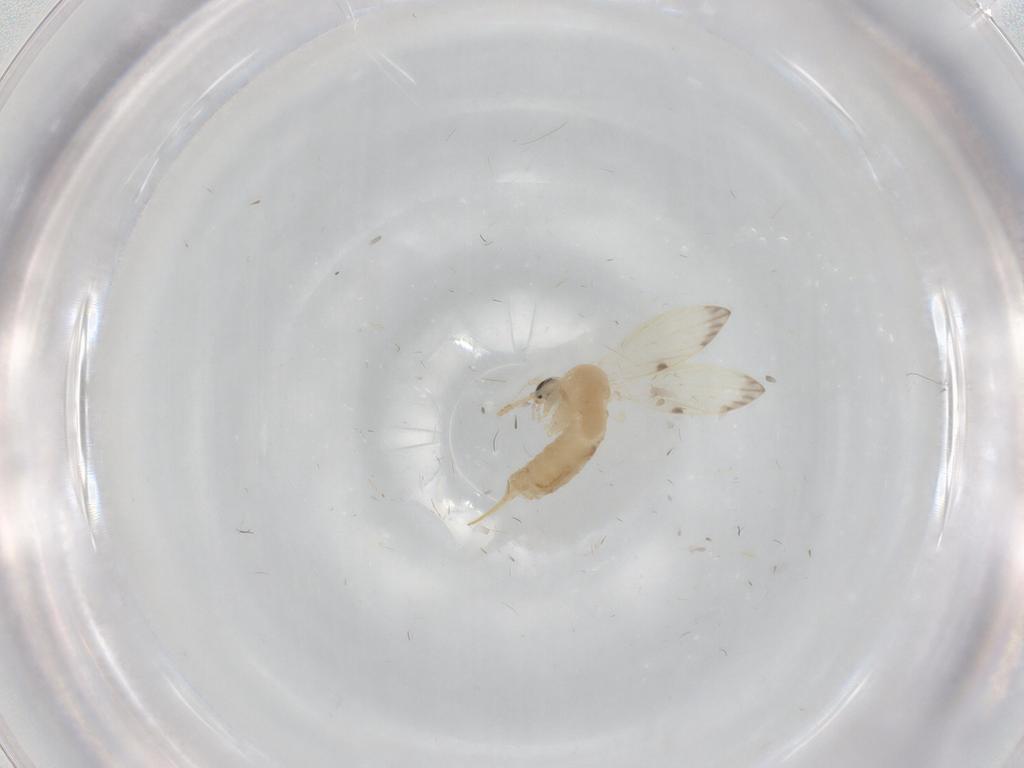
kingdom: Animalia
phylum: Arthropoda
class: Insecta
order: Diptera
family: Psychodidae
